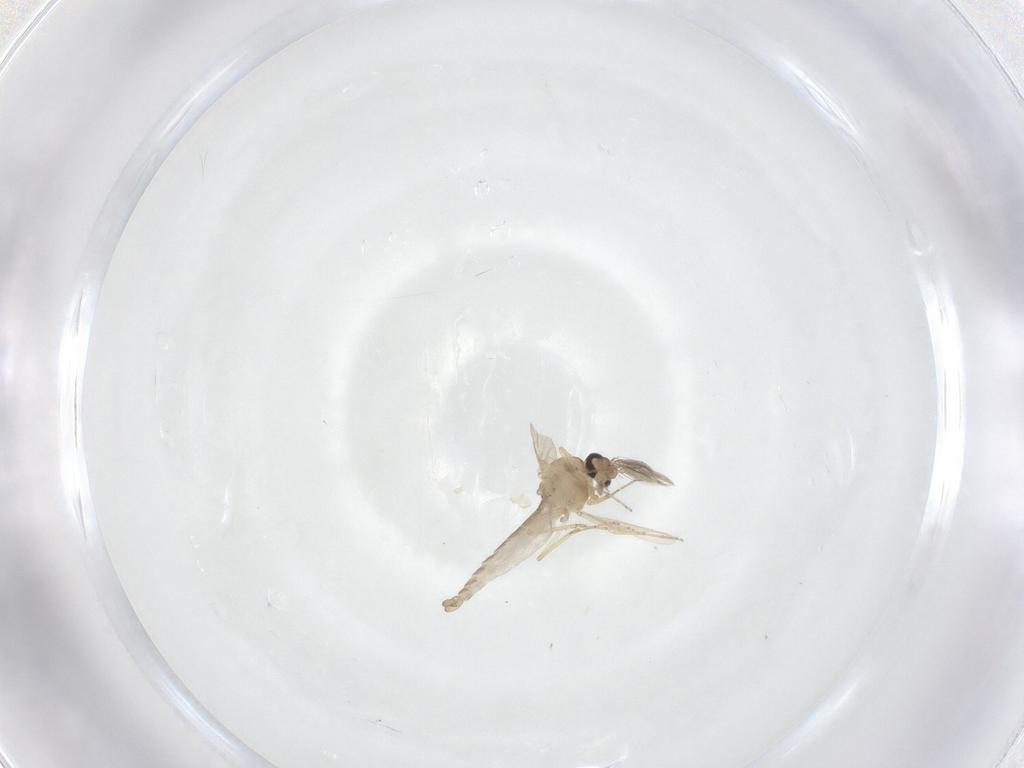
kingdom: Animalia
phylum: Arthropoda
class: Insecta
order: Diptera
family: Ceratopogonidae
